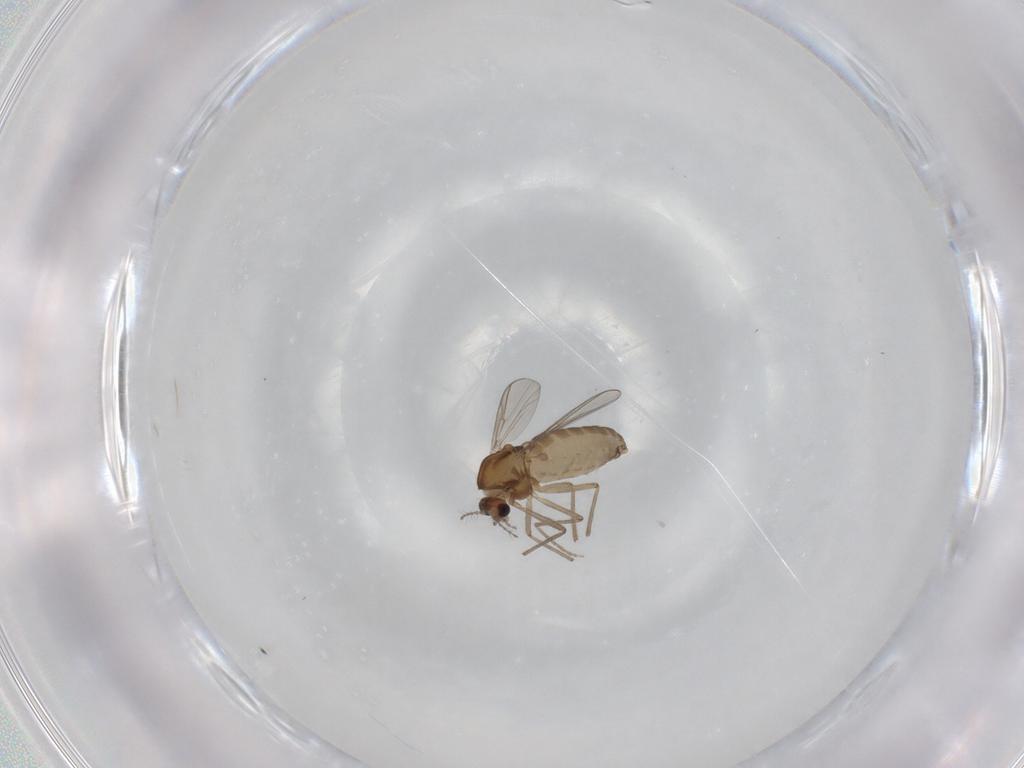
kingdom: Animalia
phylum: Arthropoda
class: Insecta
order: Diptera
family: Chironomidae
